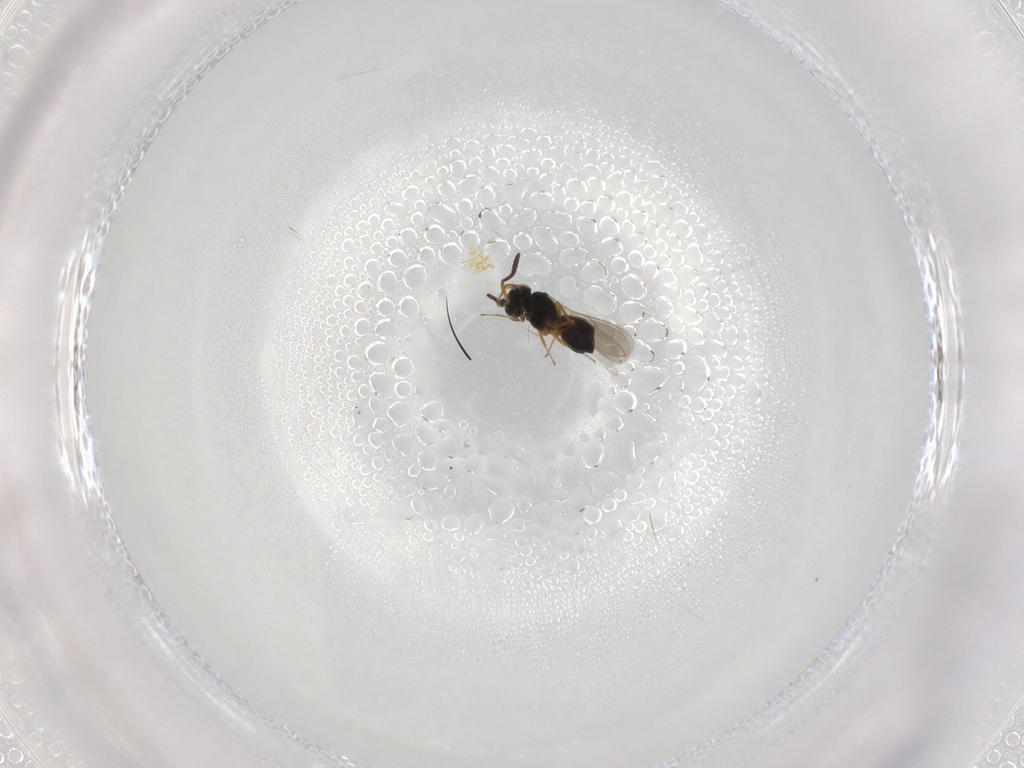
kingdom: Animalia
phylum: Arthropoda
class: Insecta
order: Hymenoptera
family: Scelionidae
